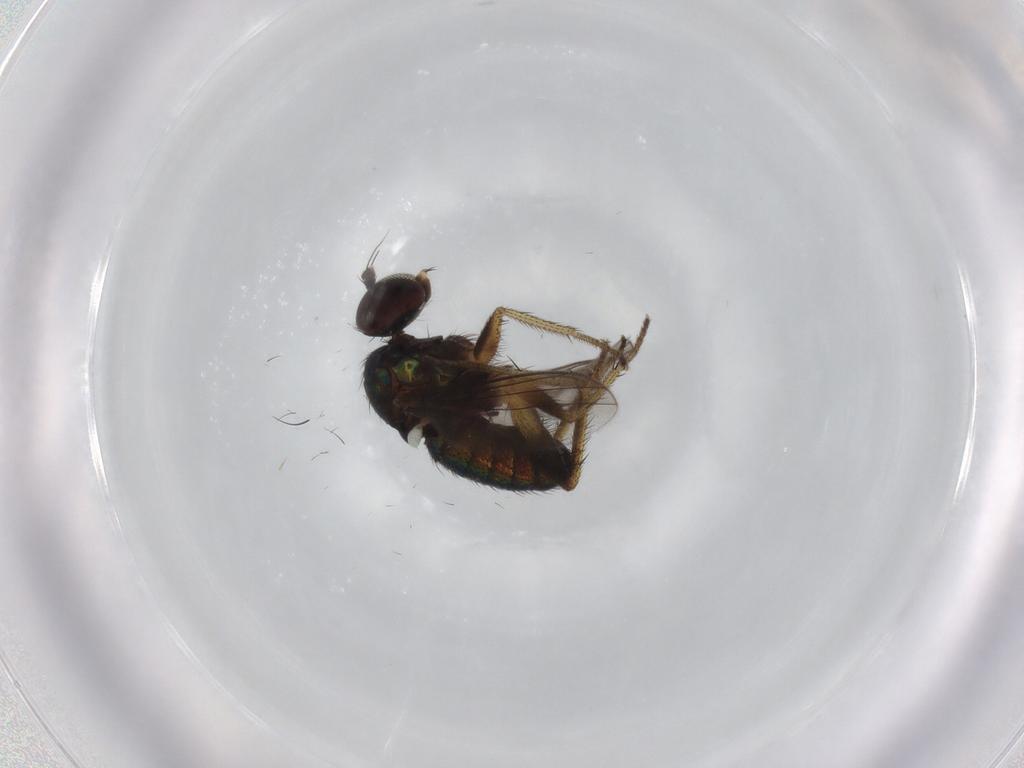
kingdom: Animalia
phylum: Arthropoda
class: Insecta
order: Diptera
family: Dolichopodidae
